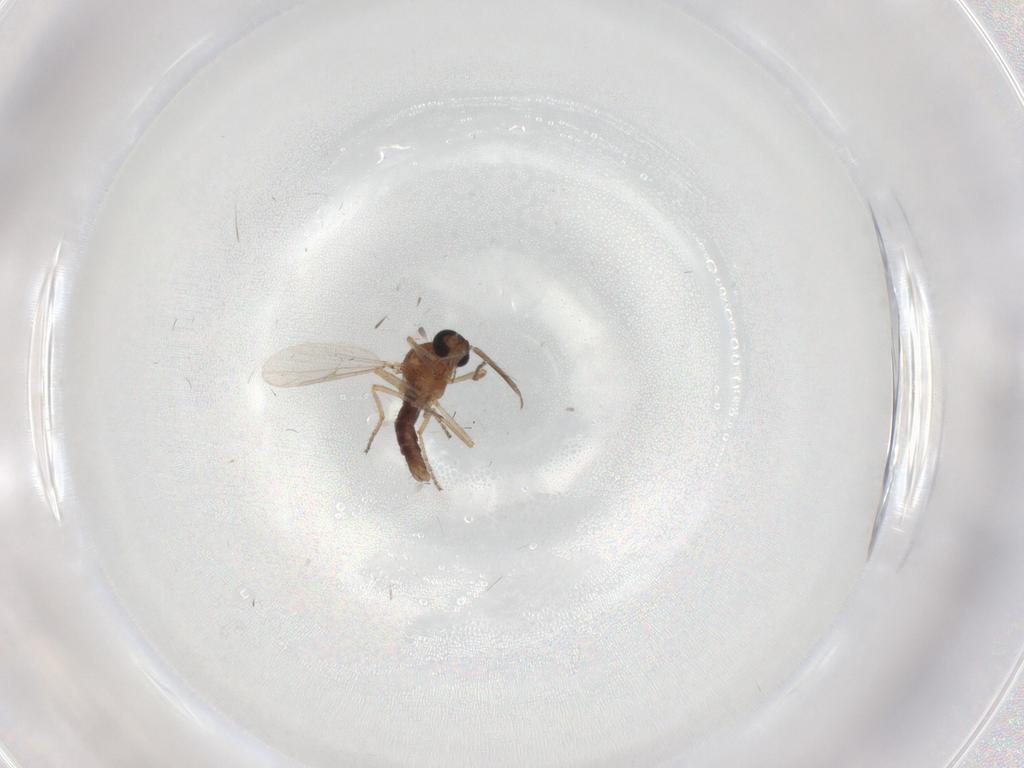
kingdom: Animalia
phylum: Arthropoda
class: Insecta
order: Diptera
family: Ceratopogonidae
